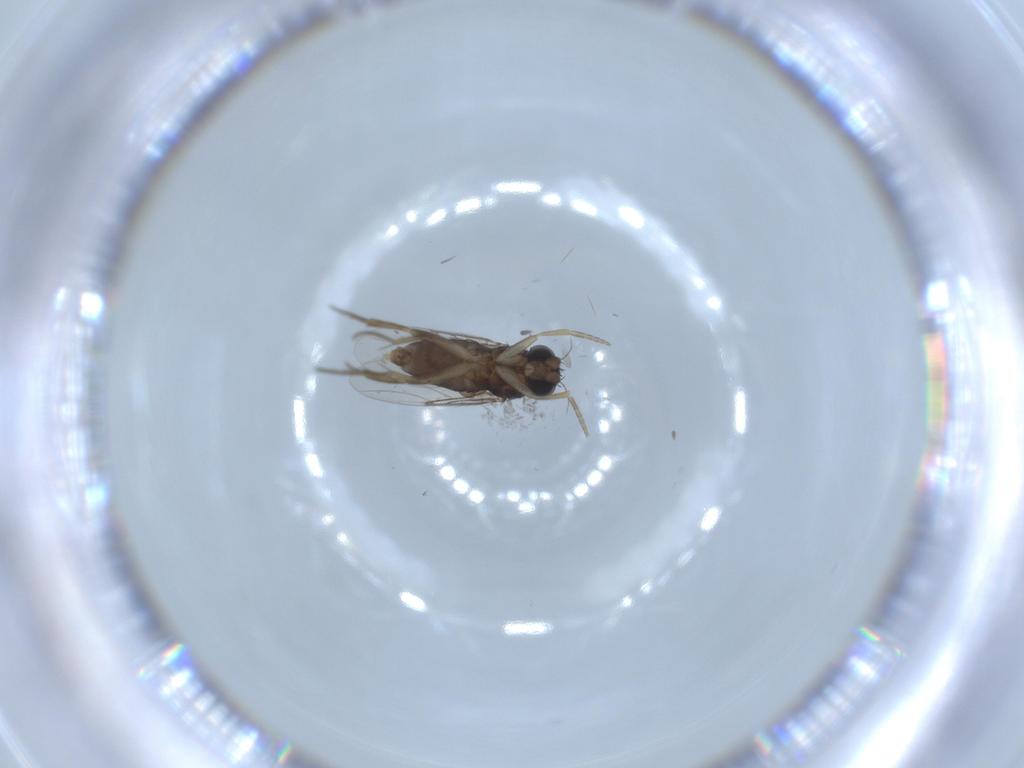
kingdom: Animalia
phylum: Arthropoda
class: Insecta
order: Diptera
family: Phoridae
